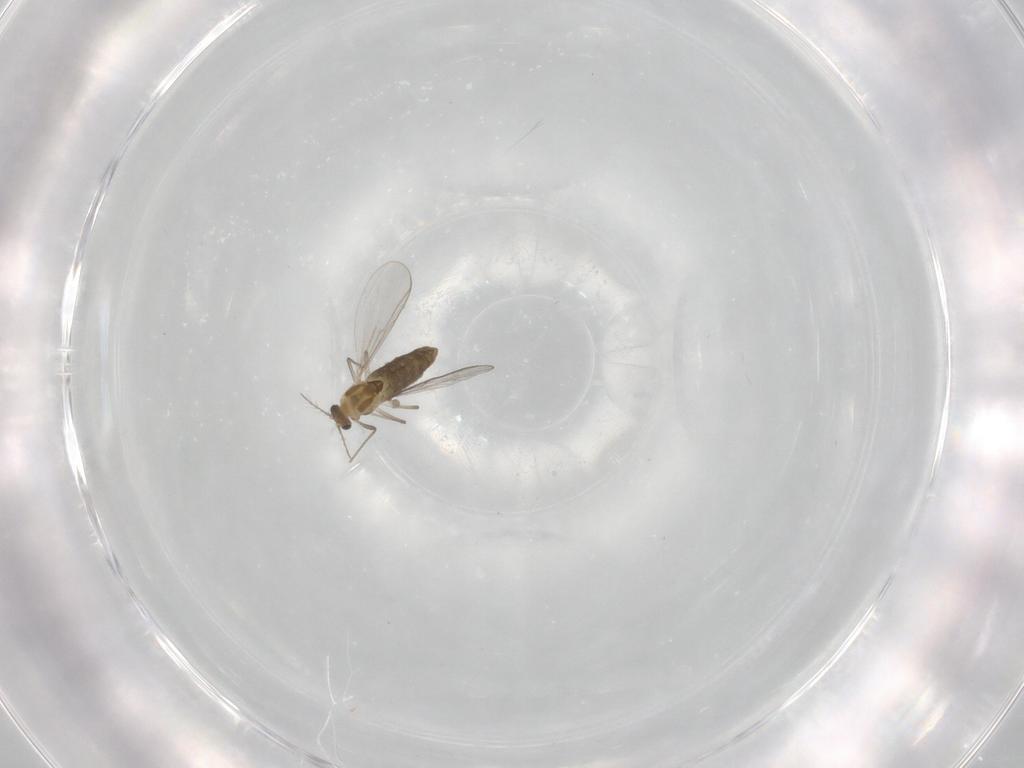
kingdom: Animalia
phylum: Arthropoda
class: Insecta
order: Diptera
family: Chironomidae
